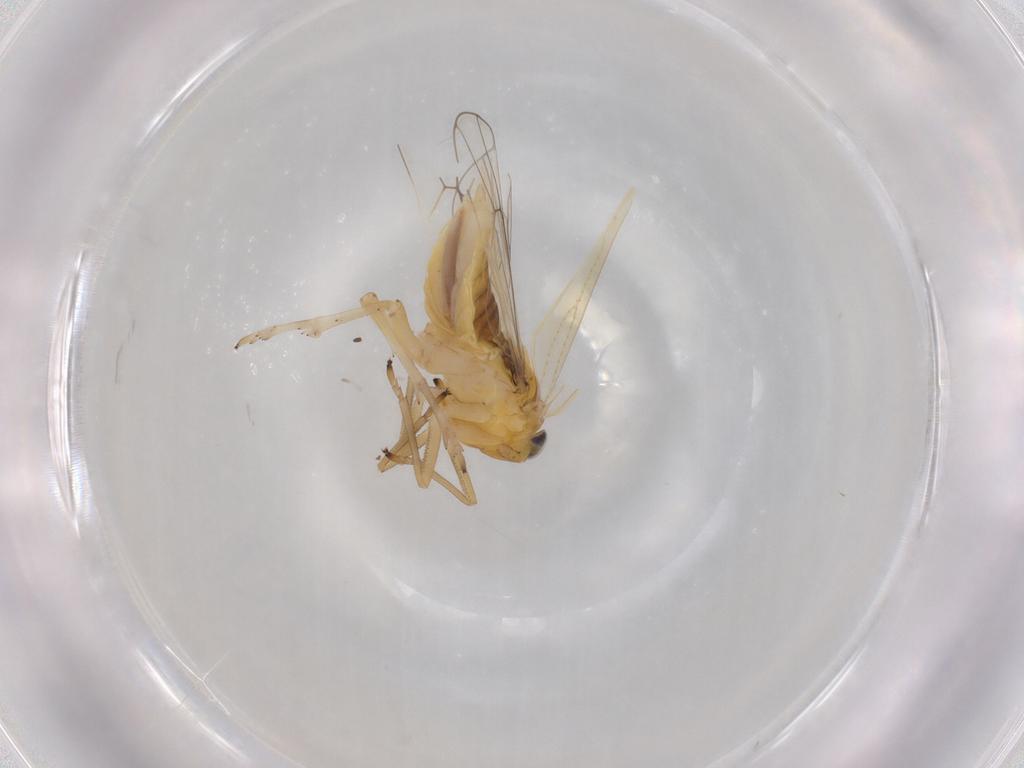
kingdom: Animalia
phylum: Arthropoda
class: Insecta
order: Hemiptera
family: Delphacidae
